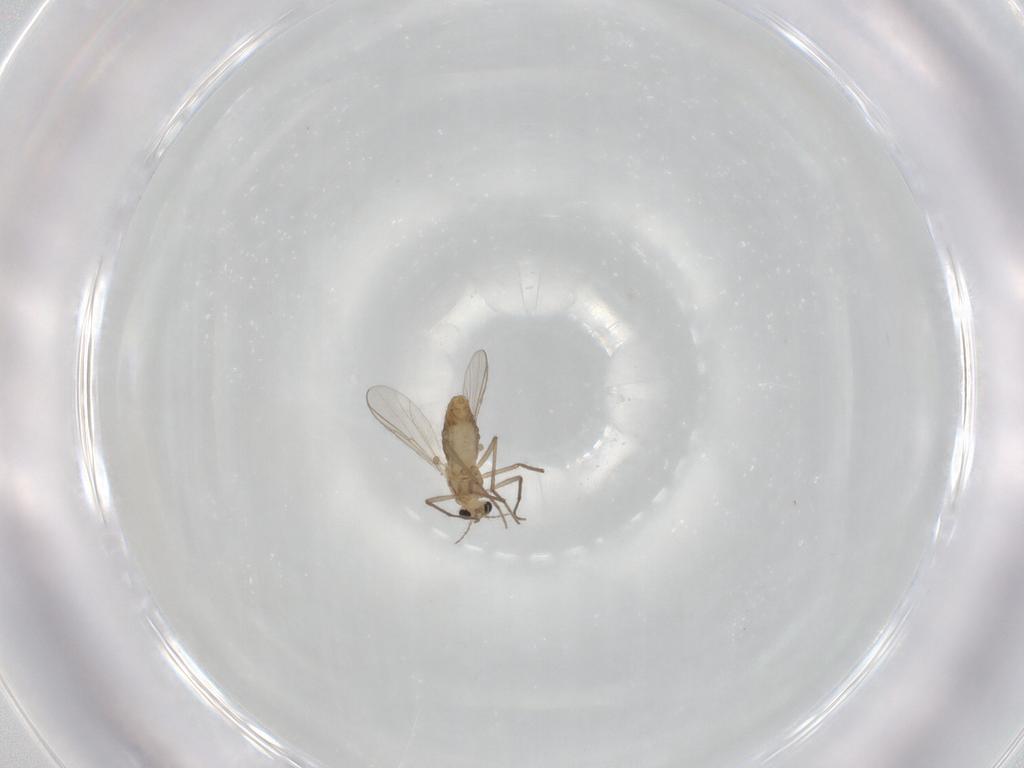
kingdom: Animalia
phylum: Arthropoda
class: Insecta
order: Diptera
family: Chironomidae
